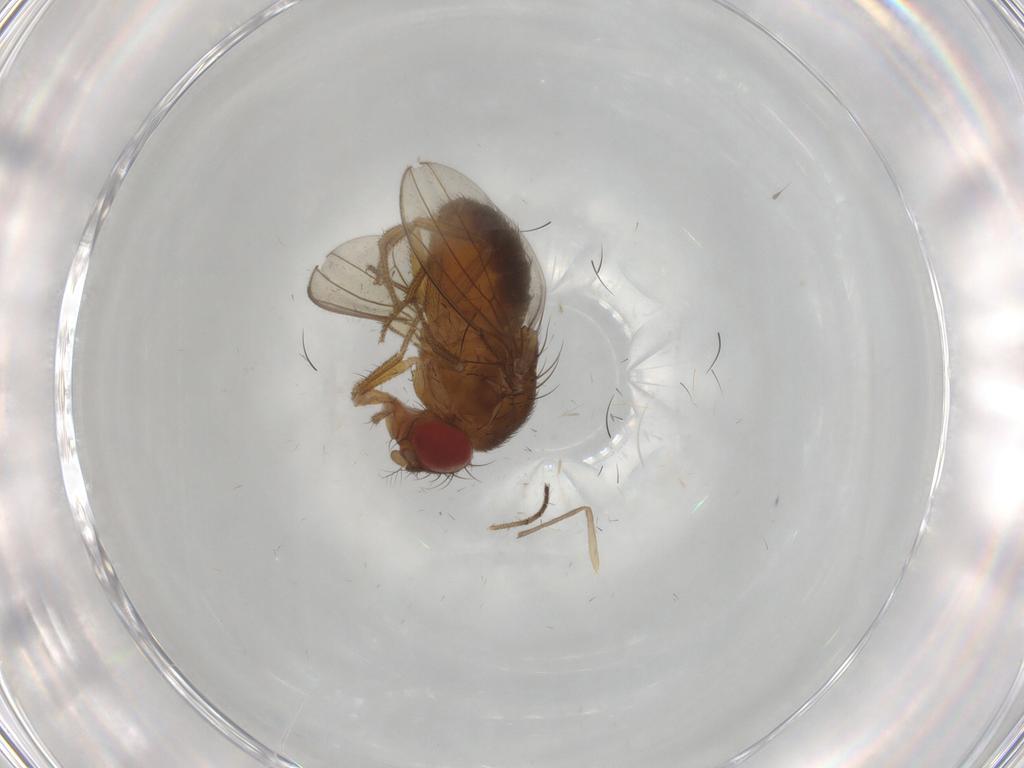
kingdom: Animalia
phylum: Arthropoda
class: Insecta
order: Diptera
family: Drosophilidae
